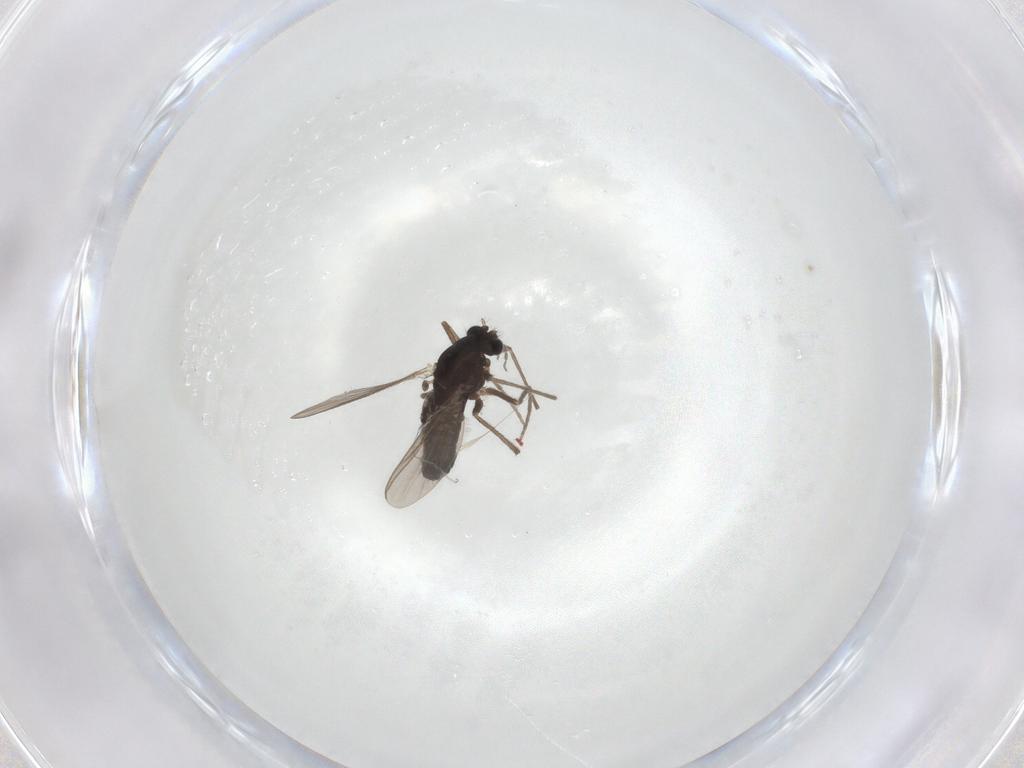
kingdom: Animalia
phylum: Arthropoda
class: Insecta
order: Diptera
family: Chironomidae
